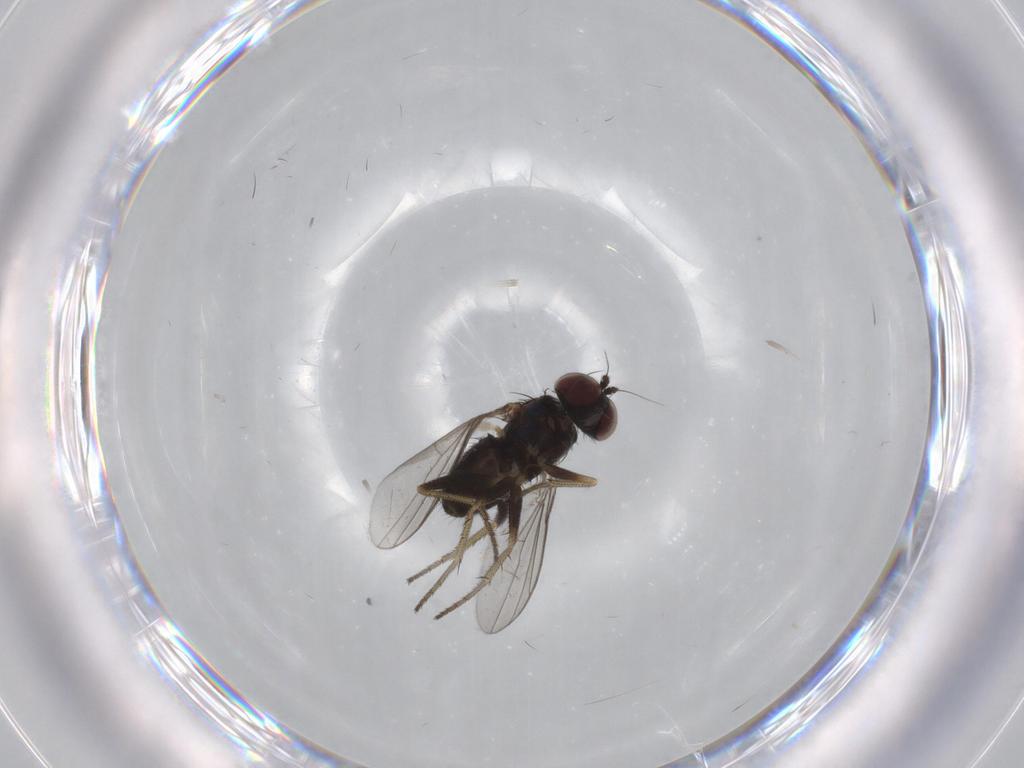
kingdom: Animalia
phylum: Arthropoda
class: Insecta
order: Diptera
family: Dolichopodidae
